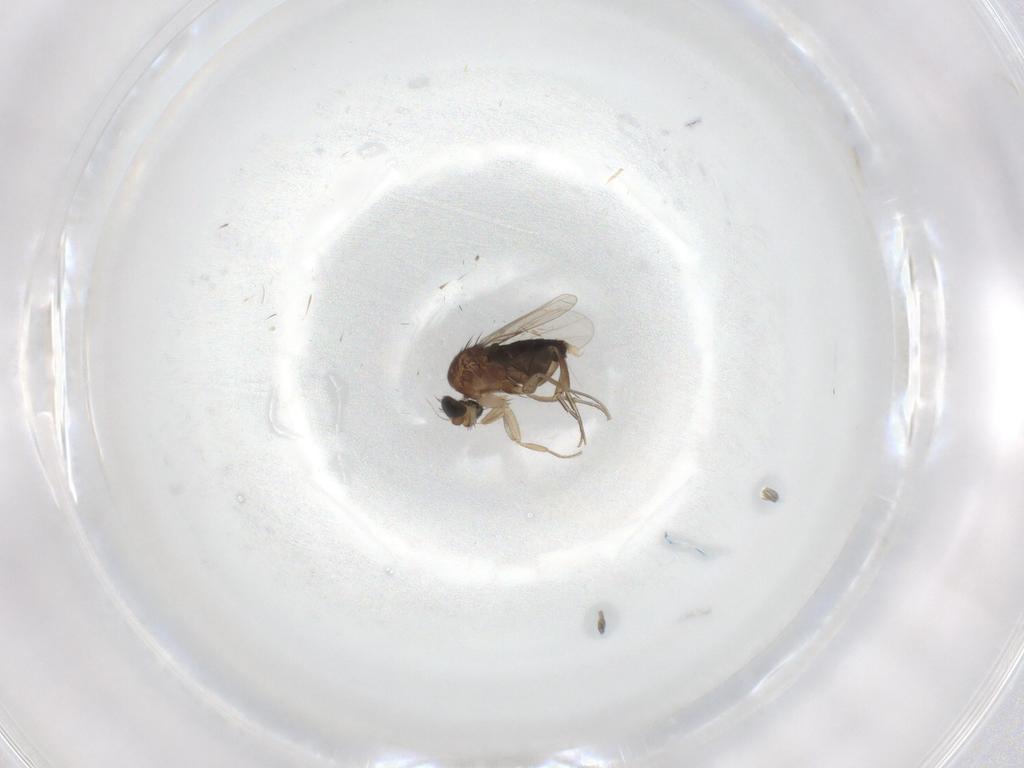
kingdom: Animalia
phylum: Arthropoda
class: Insecta
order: Diptera
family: Phoridae
